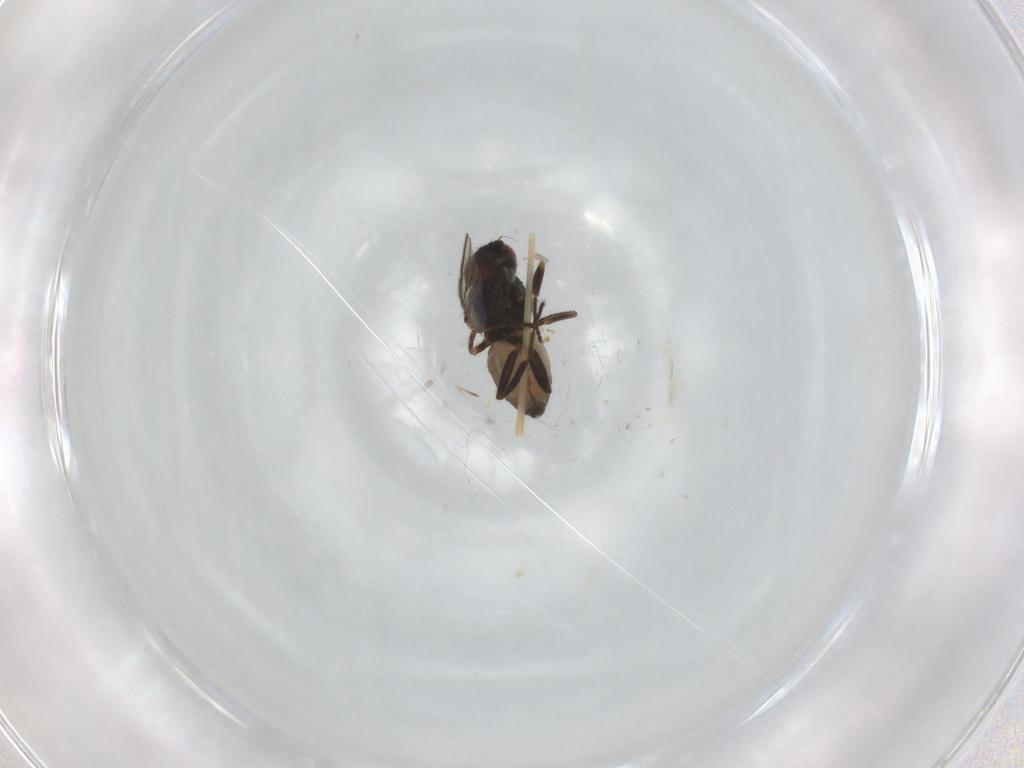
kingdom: Animalia
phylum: Arthropoda
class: Insecta
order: Diptera
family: Chloropidae
